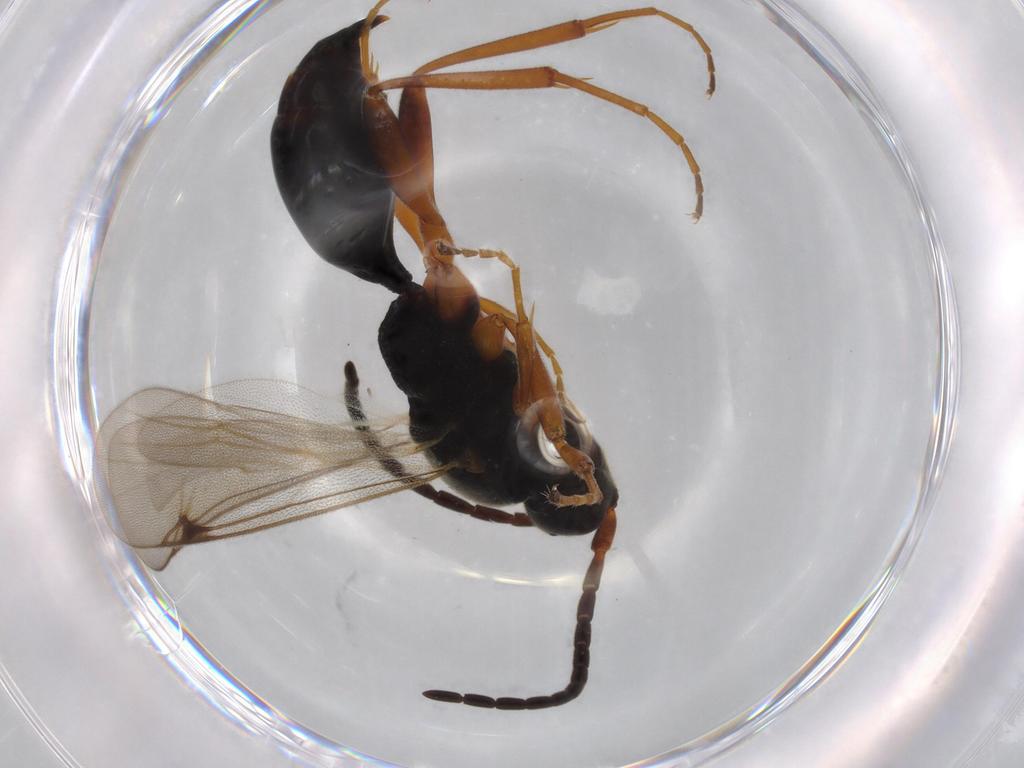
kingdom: Animalia
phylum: Arthropoda
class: Insecta
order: Hymenoptera
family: Proctotrupidae
